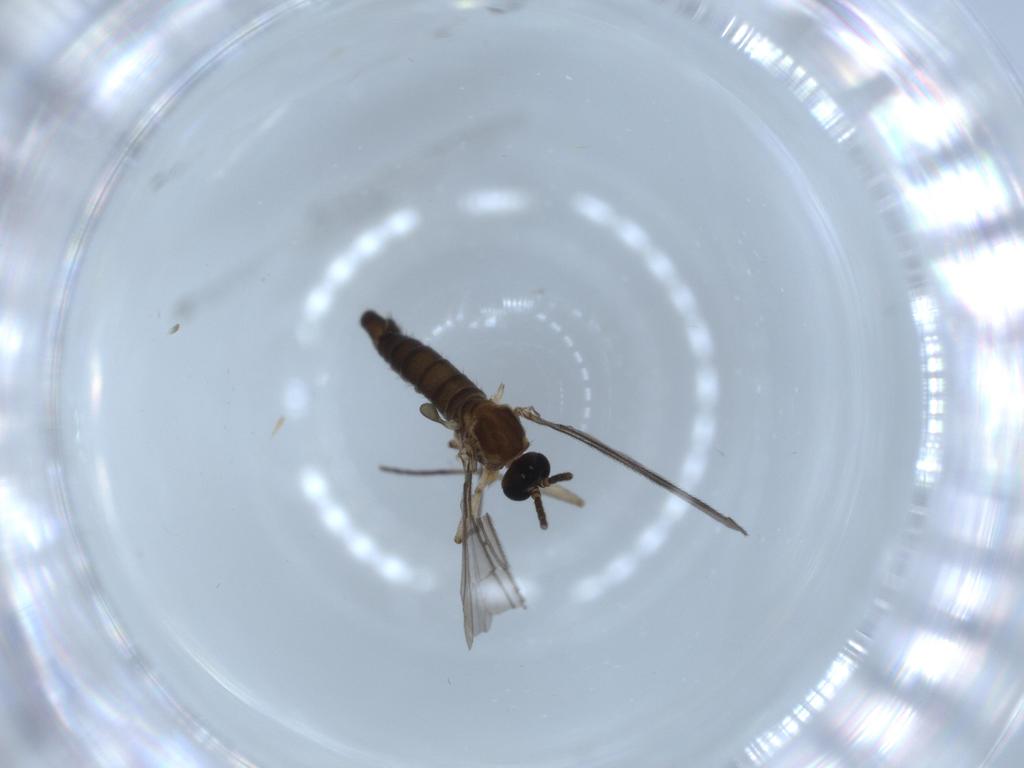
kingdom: Animalia
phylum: Arthropoda
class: Insecta
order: Diptera
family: Sciaridae
